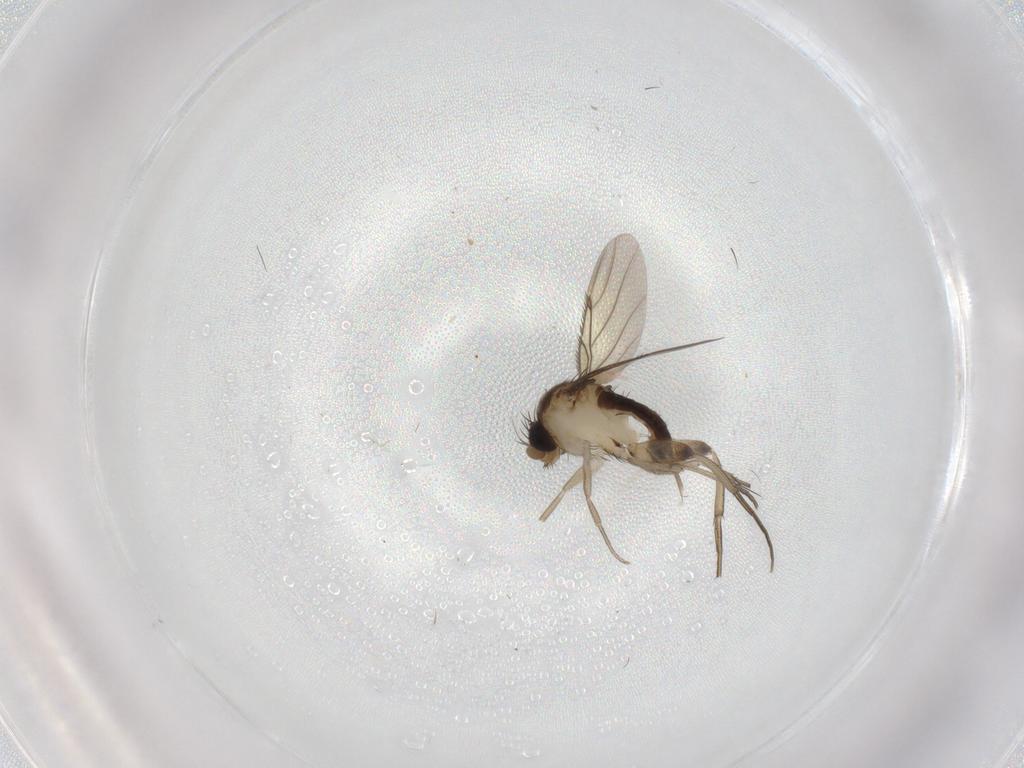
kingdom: Animalia
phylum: Arthropoda
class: Insecta
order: Diptera
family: Phoridae
